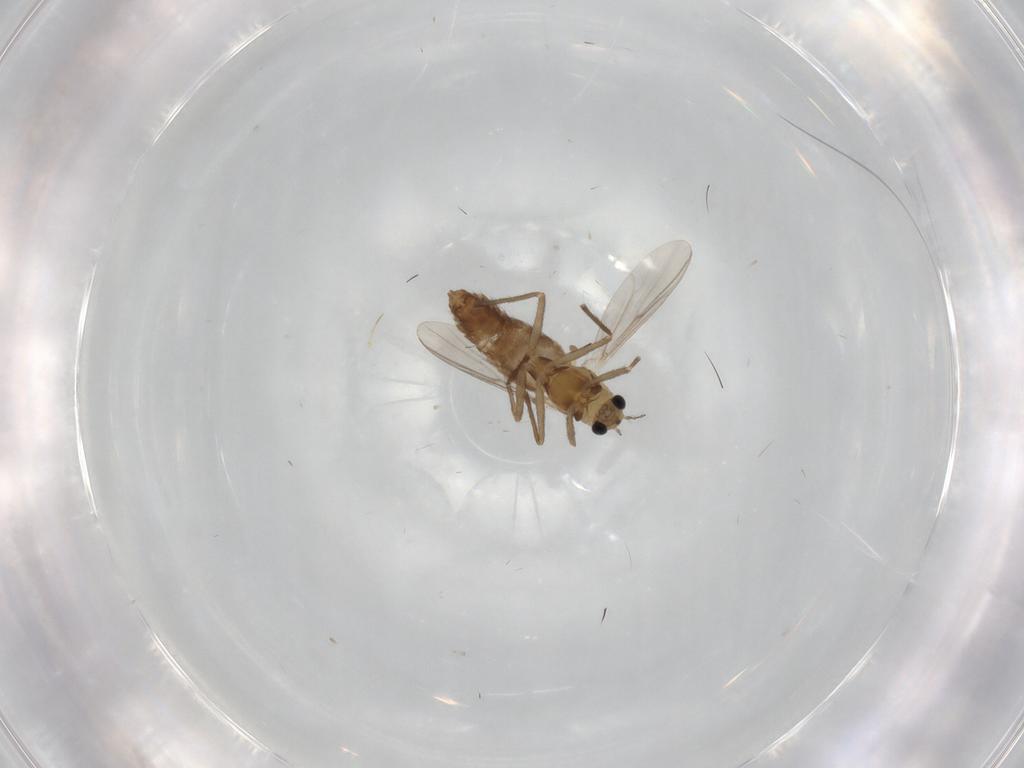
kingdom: Animalia
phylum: Arthropoda
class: Insecta
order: Diptera
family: Chironomidae
